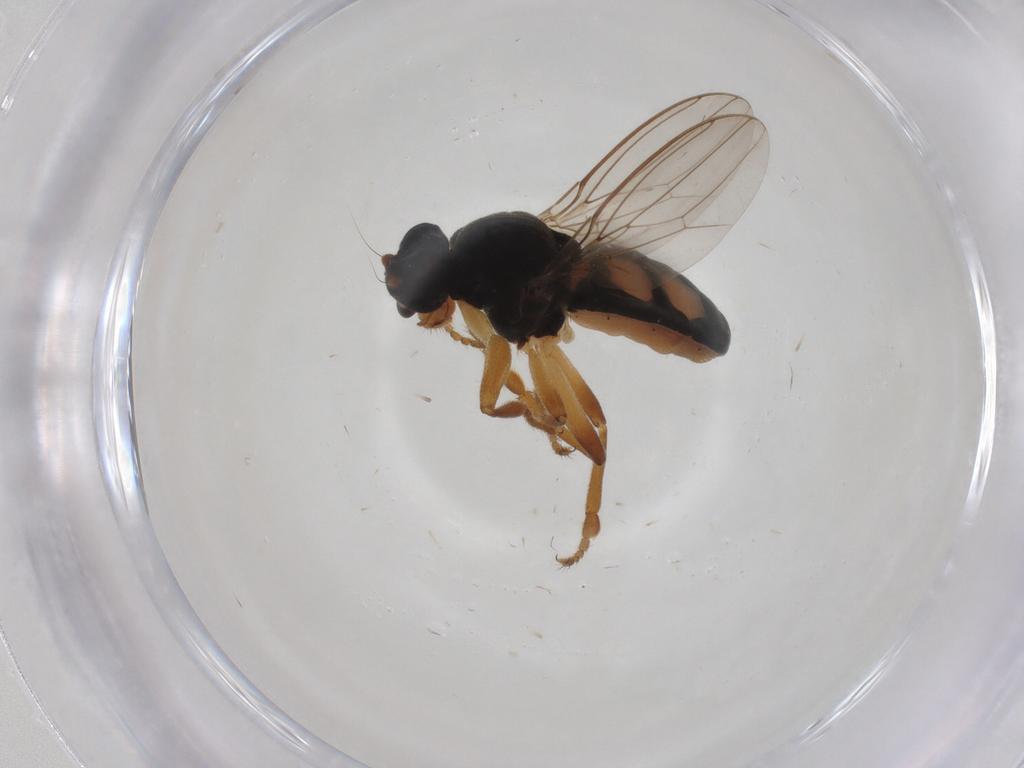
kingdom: Animalia
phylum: Arthropoda
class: Insecta
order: Diptera
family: Sphaeroceridae
